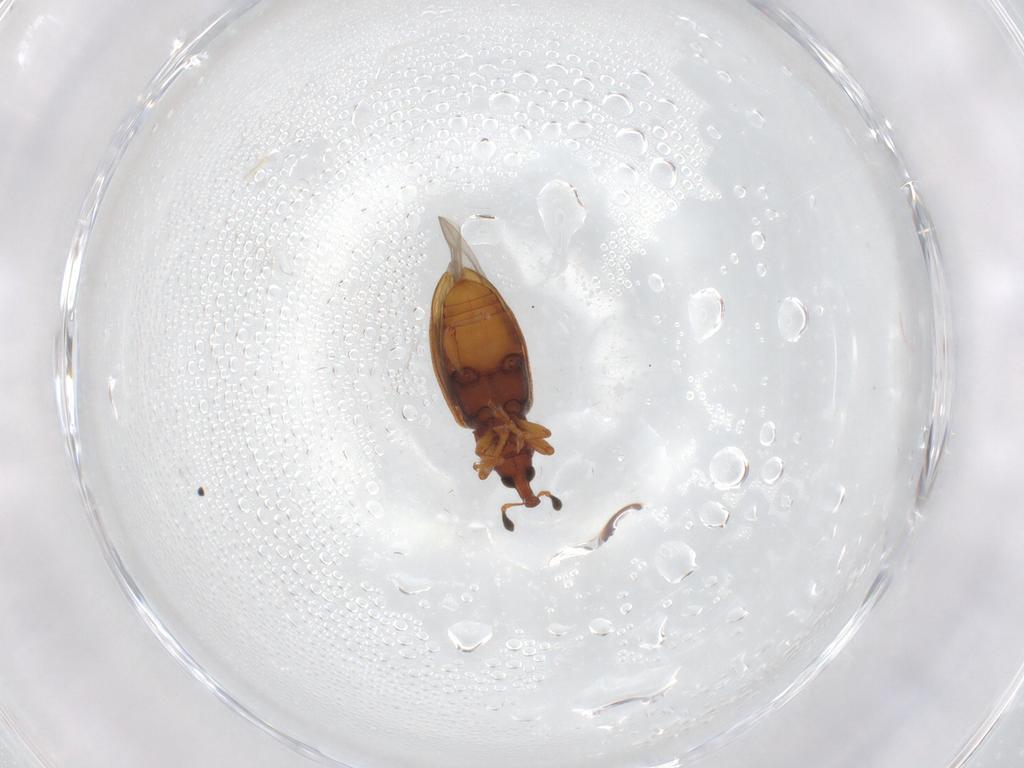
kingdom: Animalia
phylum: Arthropoda
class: Insecta
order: Coleoptera
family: Curculionidae
